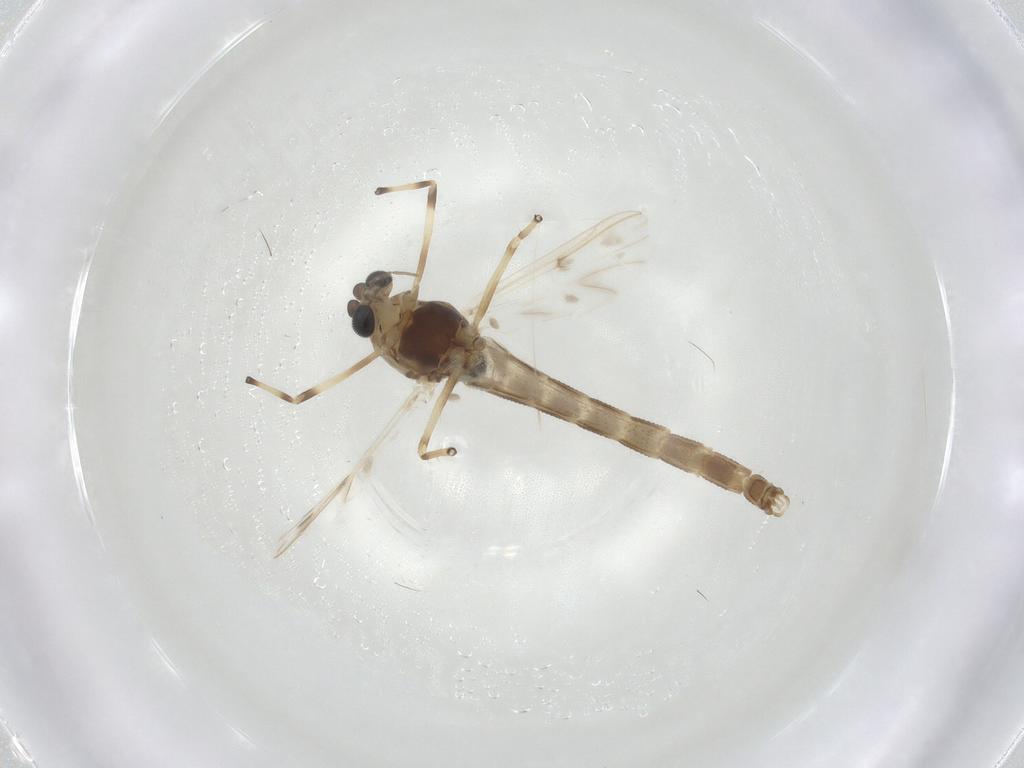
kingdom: Animalia
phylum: Arthropoda
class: Insecta
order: Diptera
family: Chironomidae
